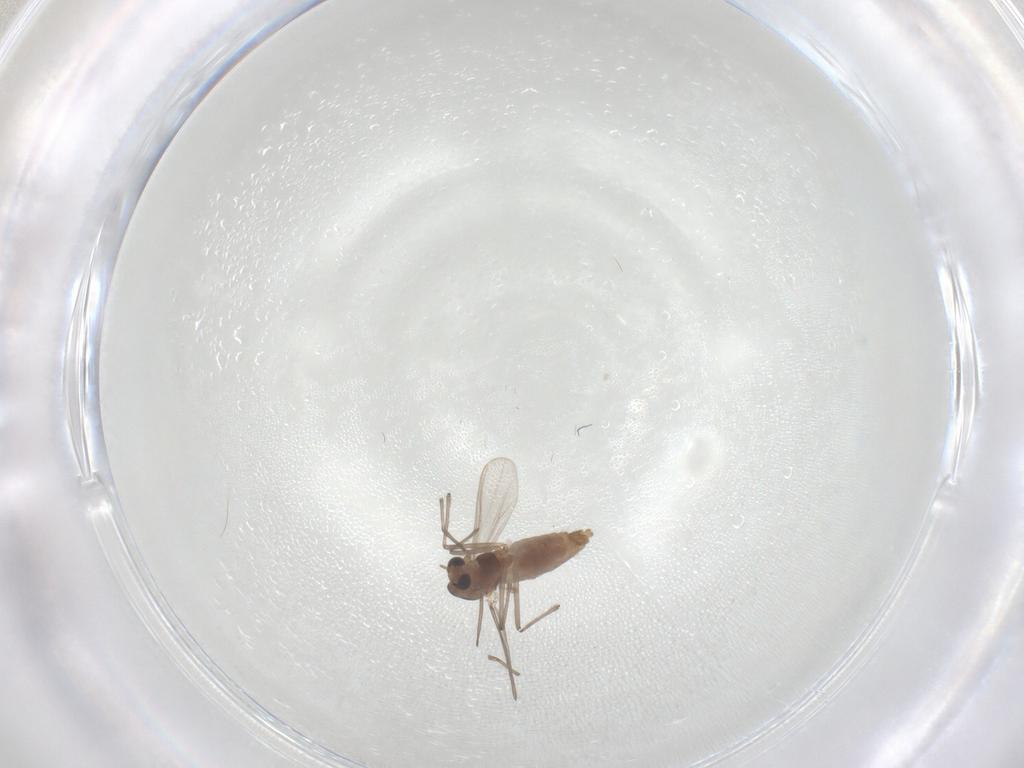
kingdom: Animalia
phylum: Arthropoda
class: Insecta
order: Diptera
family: Chironomidae
